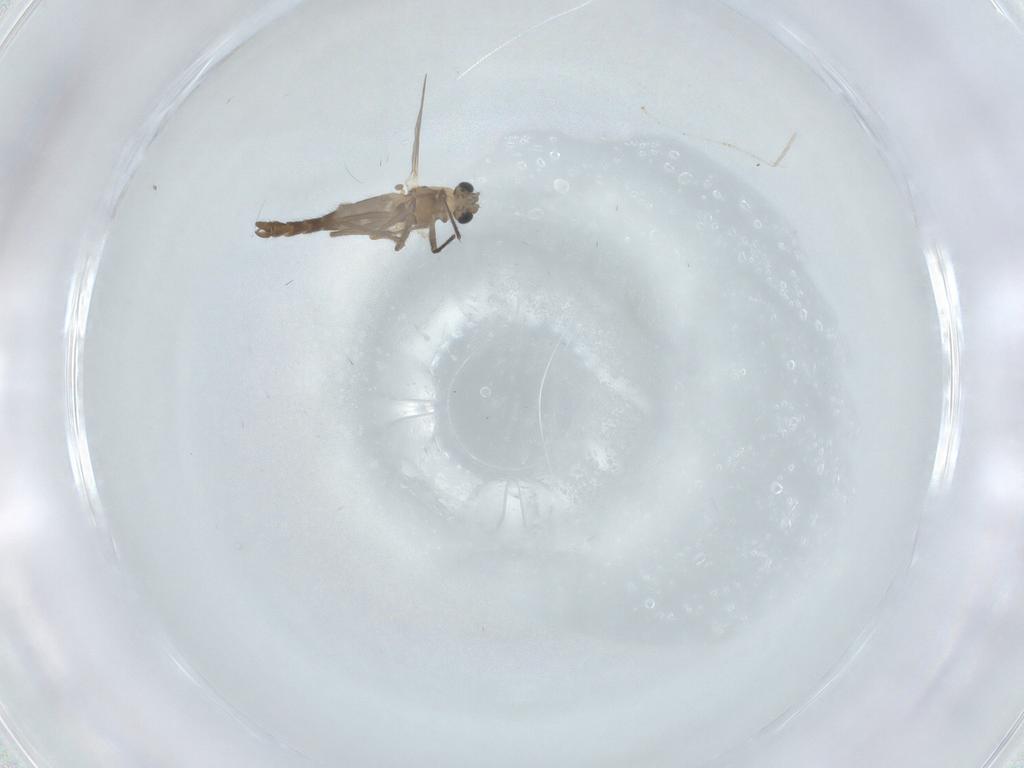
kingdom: Animalia
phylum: Arthropoda
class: Insecta
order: Diptera
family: Chironomidae
